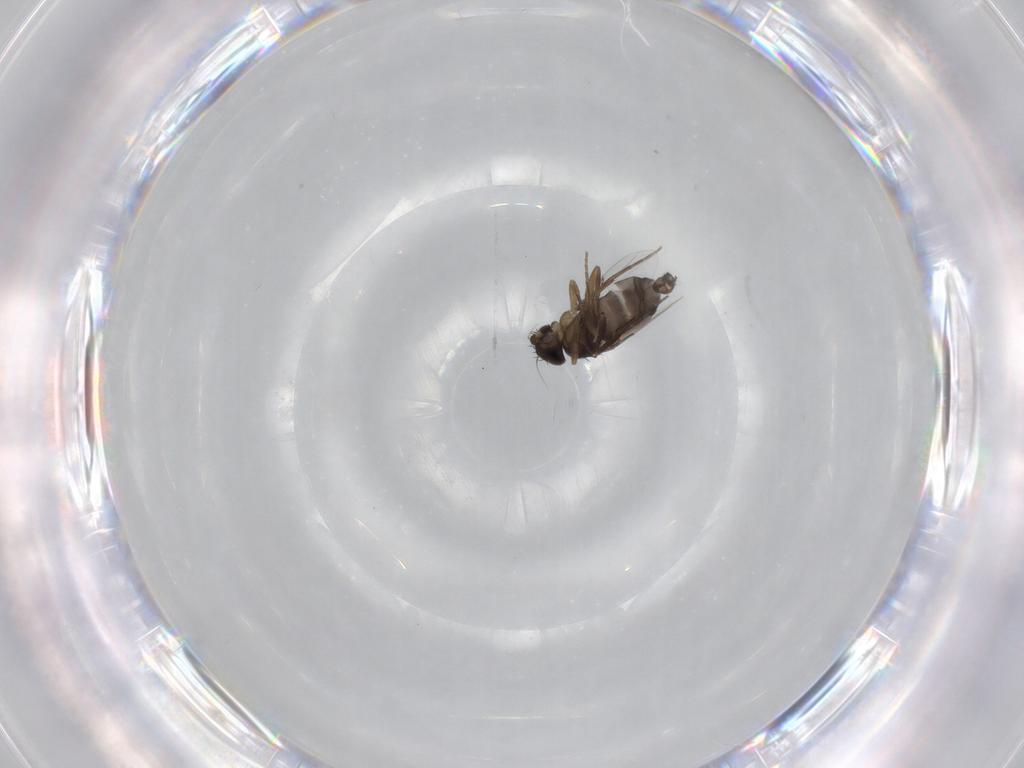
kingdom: Animalia
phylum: Arthropoda
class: Insecta
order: Diptera
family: Phoridae
